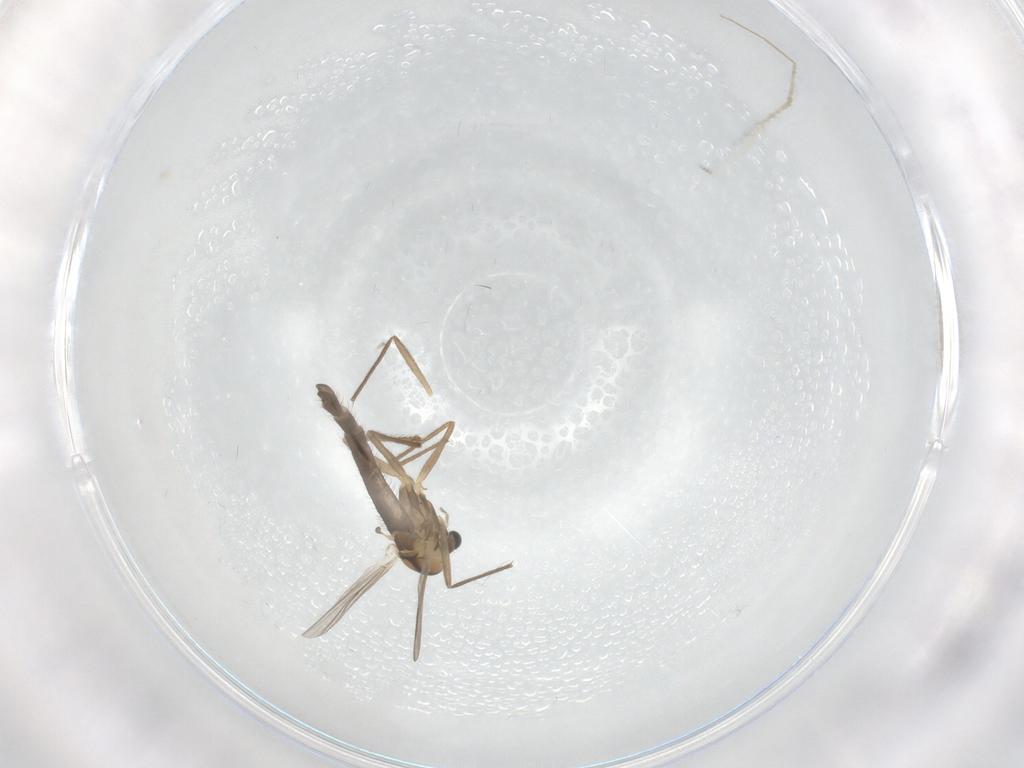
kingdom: Animalia
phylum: Arthropoda
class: Insecta
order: Diptera
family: Chironomidae
